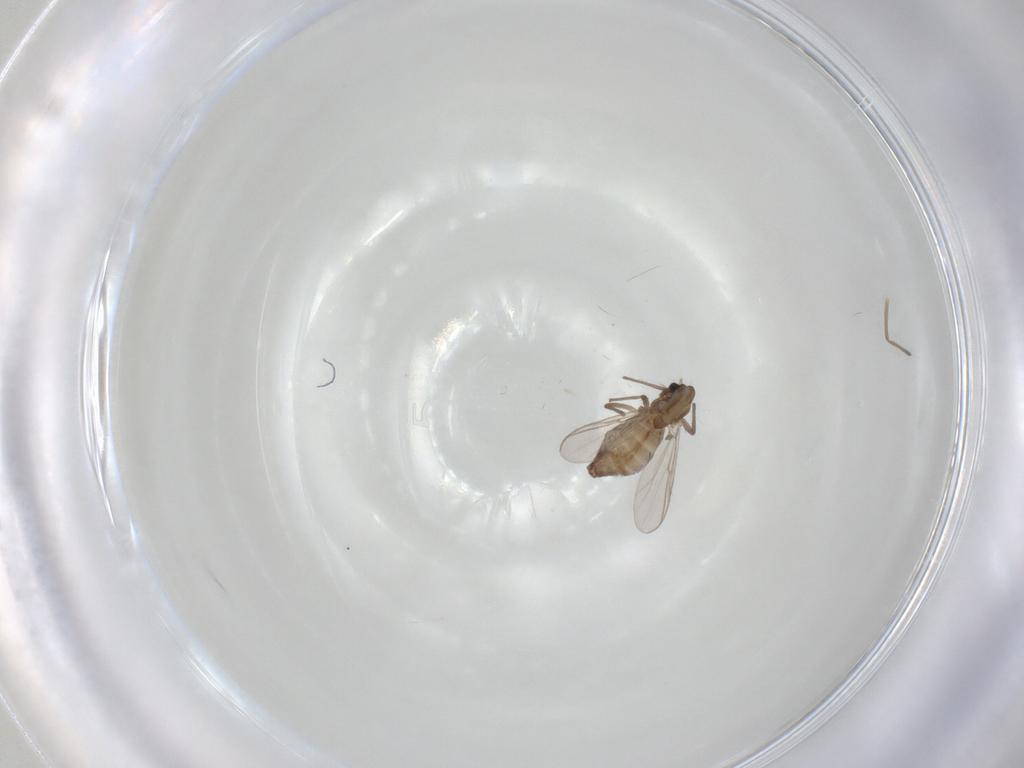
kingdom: Animalia
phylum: Arthropoda
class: Insecta
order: Diptera
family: Chironomidae
